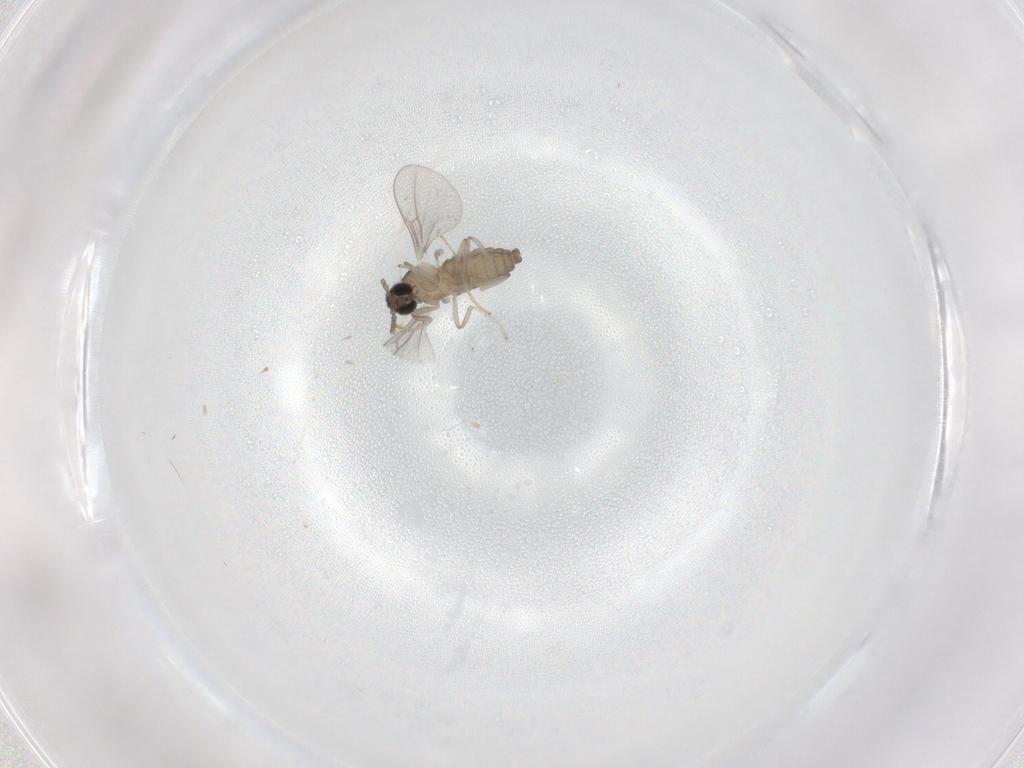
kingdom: Animalia
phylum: Arthropoda
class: Insecta
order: Diptera
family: Cecidomyiidae
